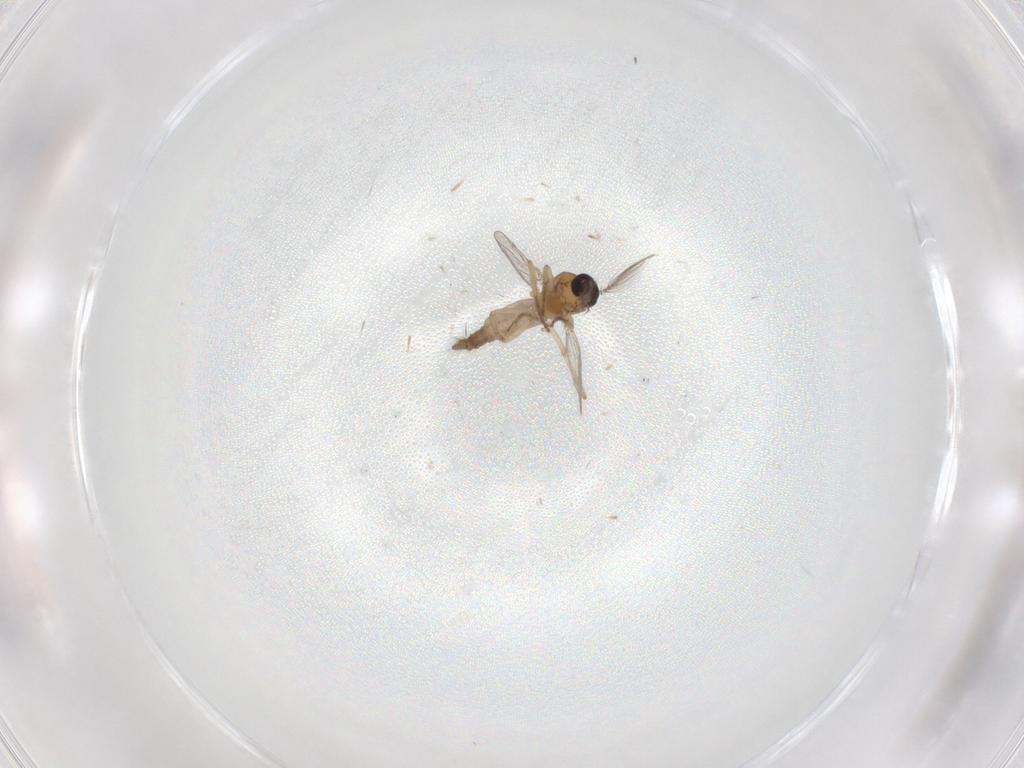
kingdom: Animalia
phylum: Arthropoda
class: Insecta
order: Diptera
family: Ceratopogonidae
